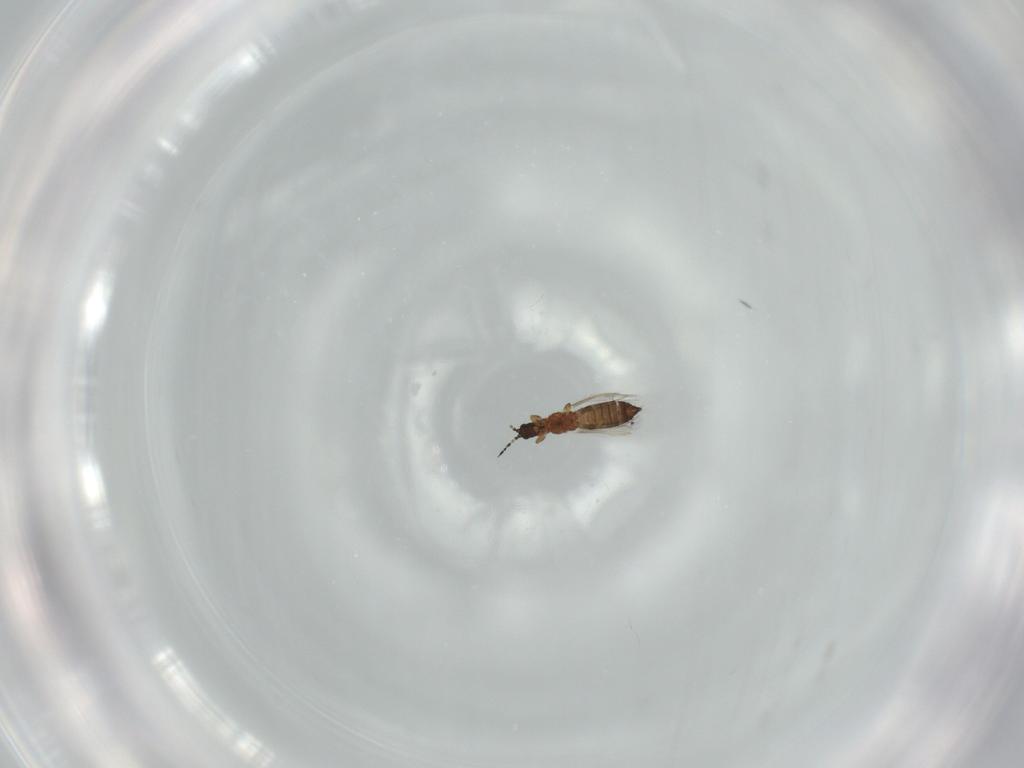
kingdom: Animalia
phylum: Arthropoda
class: Insecta
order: Thysanoptera
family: Thripidae
